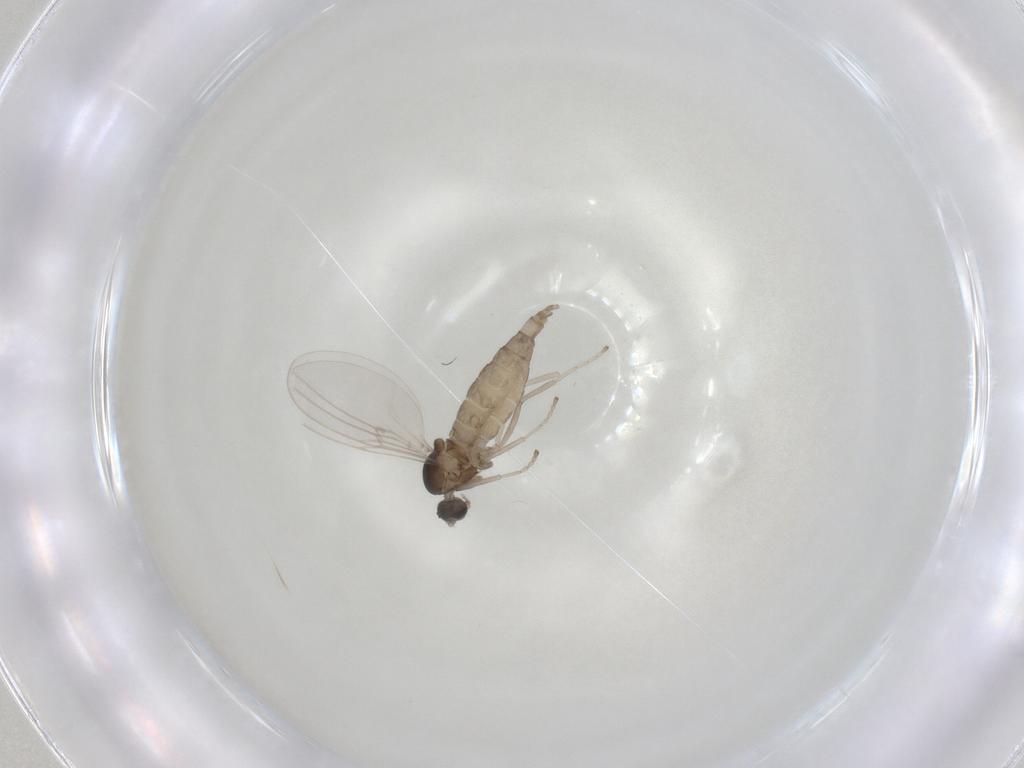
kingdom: Animalia
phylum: Arthropoda
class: Insecta
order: Diptera
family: Cecidomyiidae
